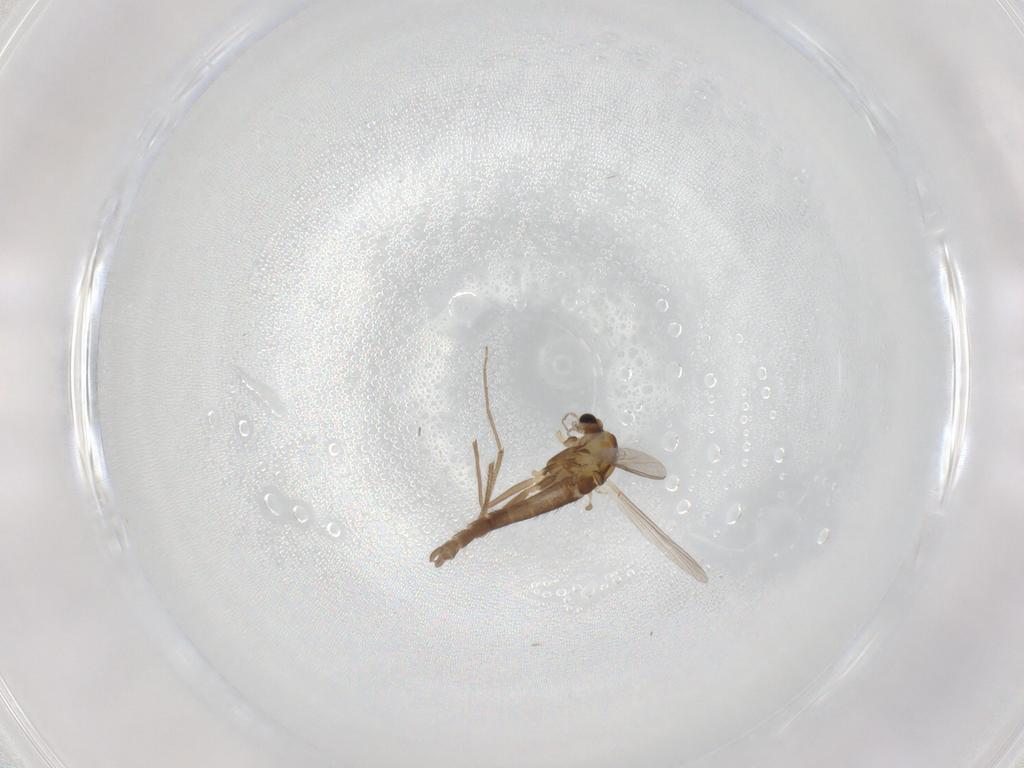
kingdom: Animalia
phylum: Arthropoda
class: Insecta
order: Diptera
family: Chironomidae
